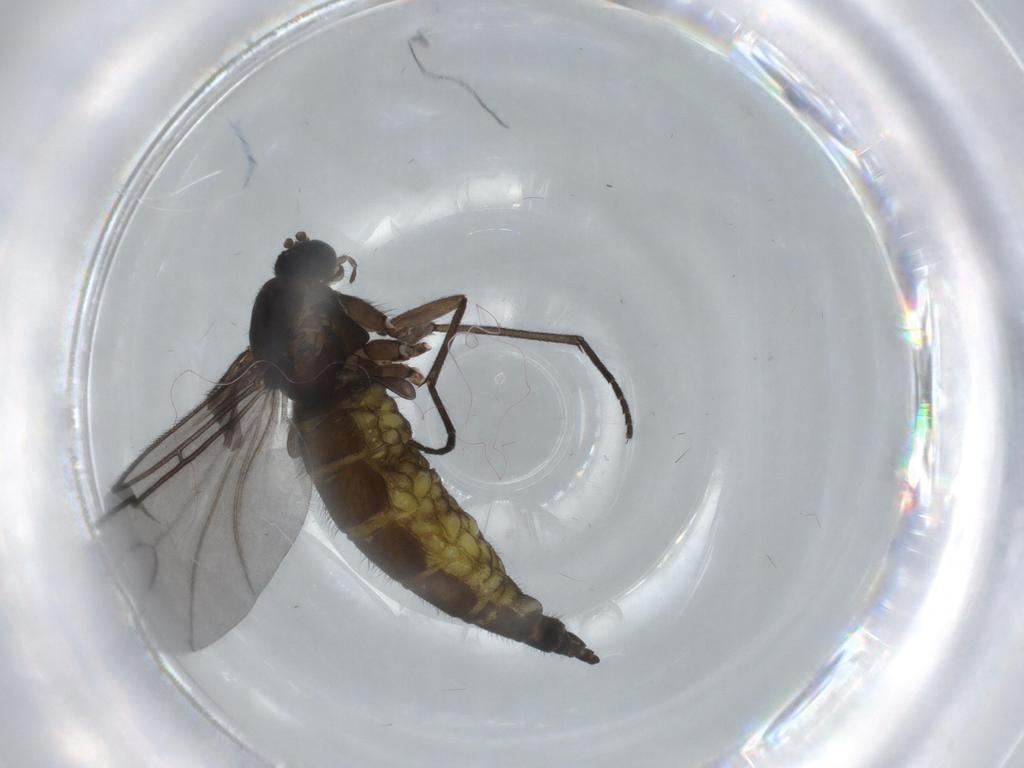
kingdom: Animalia
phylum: Arthropoda
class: Insecta
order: Diptera
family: Sciaridae
